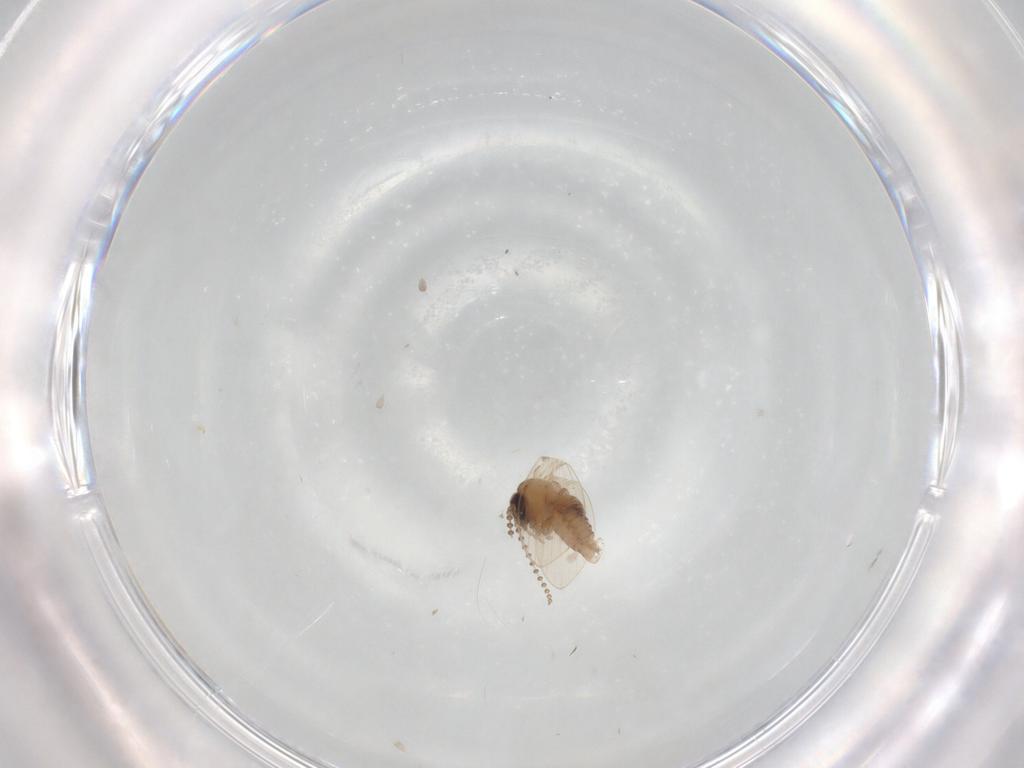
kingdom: Animalia
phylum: Arthropoda
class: Insecta
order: Diptera
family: Psychodidae
